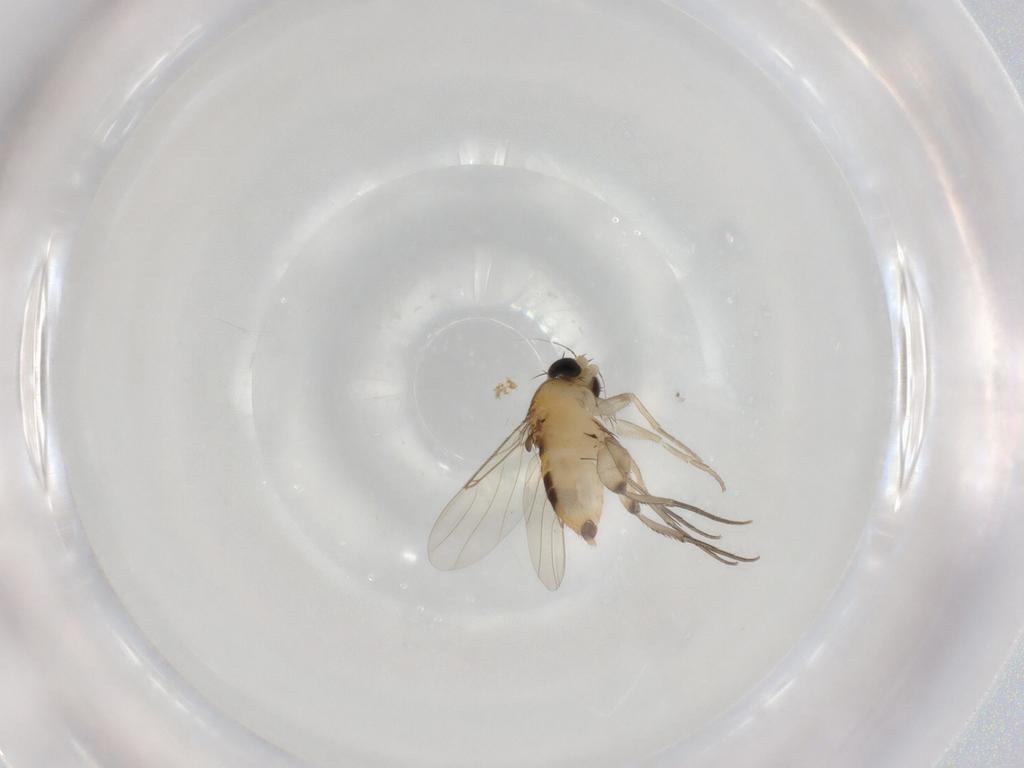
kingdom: Animalia
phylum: Arthropoda
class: Insecta
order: Diptera
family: Phoridae
